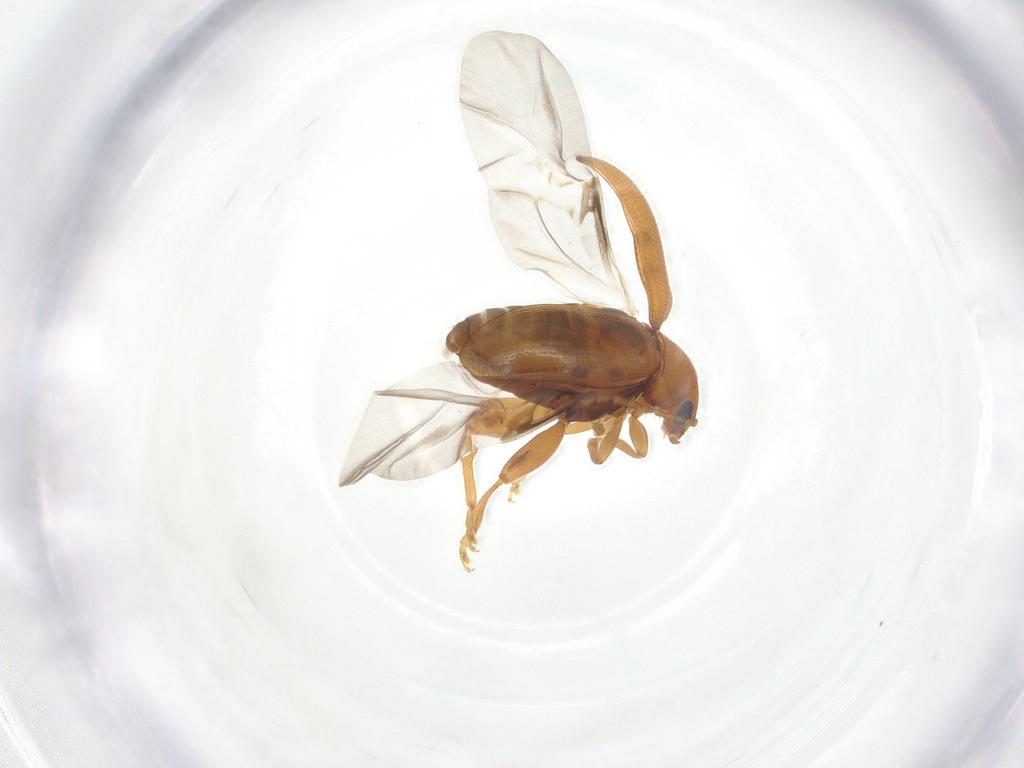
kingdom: Animalia
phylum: Arthropoda
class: Insecta
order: Coleoptera
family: Chrysomelidae
